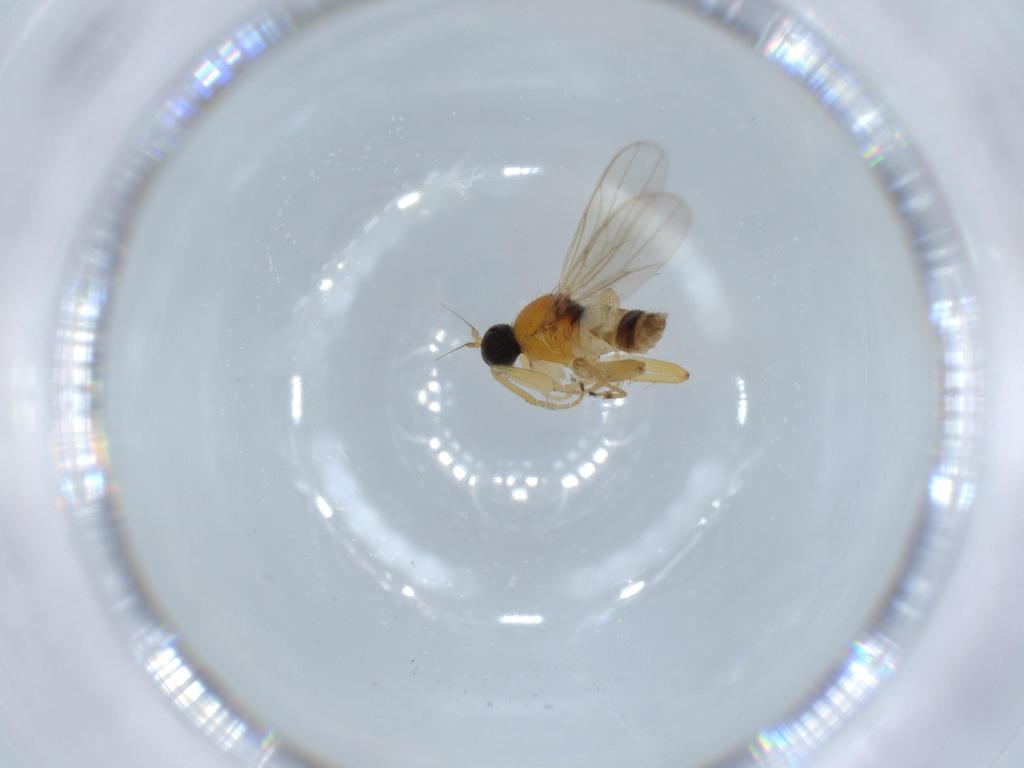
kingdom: Animalia
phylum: Arthropoda
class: Insecta
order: Diptera
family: Hybotidae
